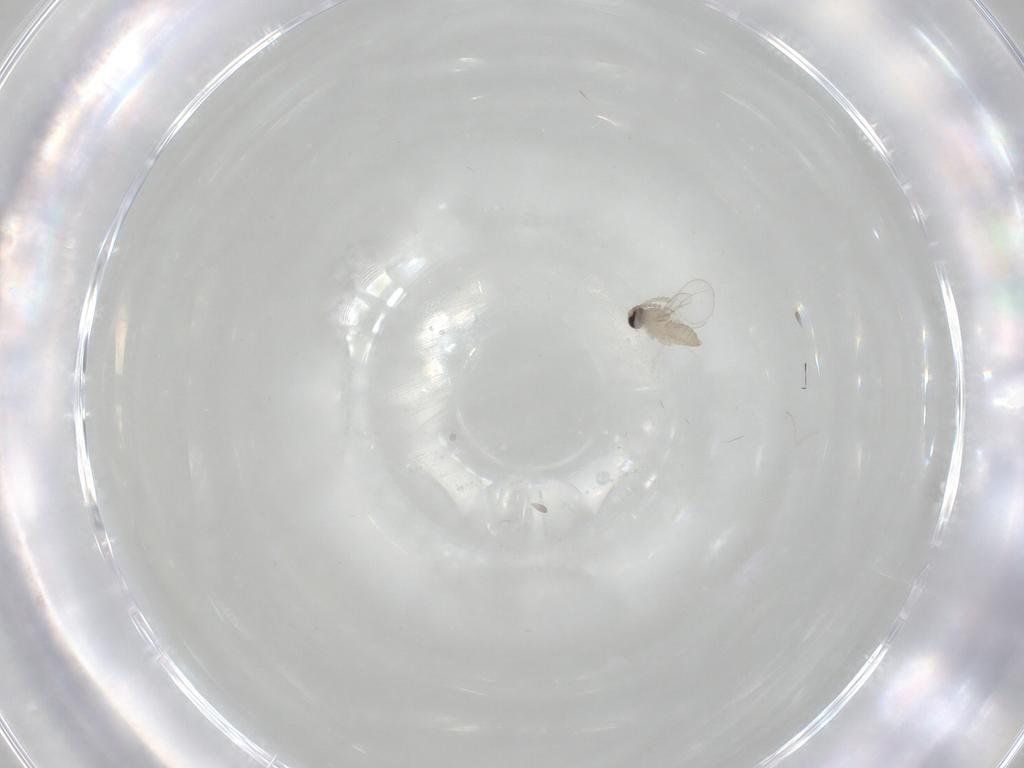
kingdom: Animalia
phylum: Arthropoda
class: Insecta
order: Diptera
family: Cecidomyiidae
